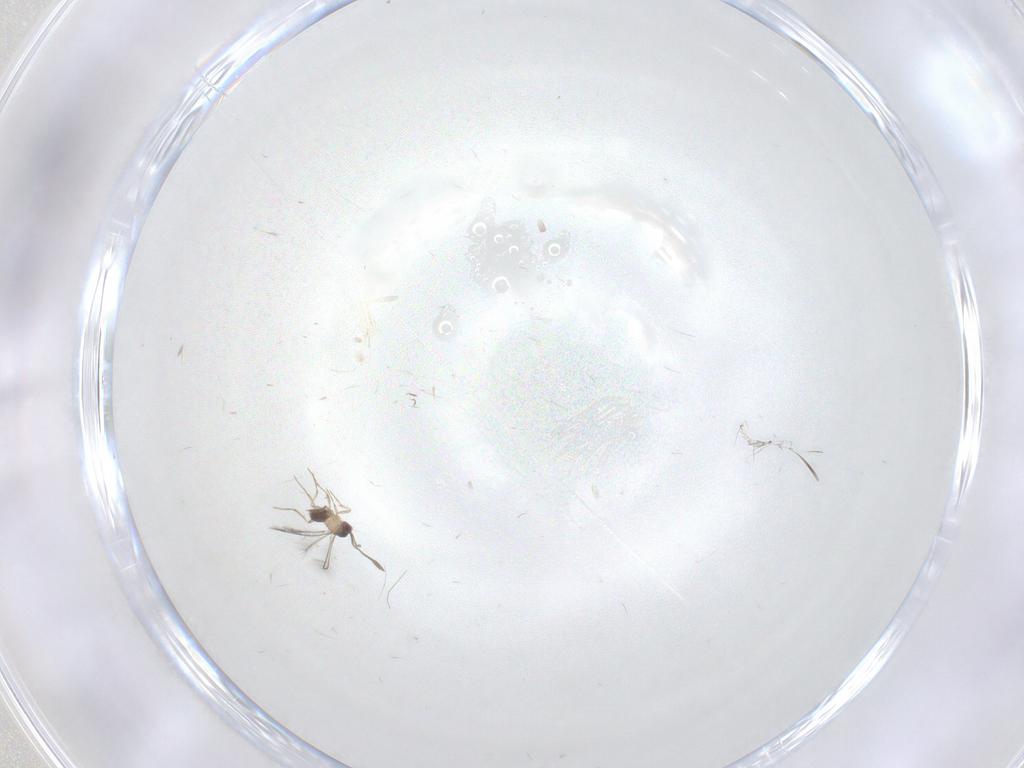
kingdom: Animalia
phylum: Arthropoda
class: Insecta
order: Hymenoptera
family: Mymaridae
